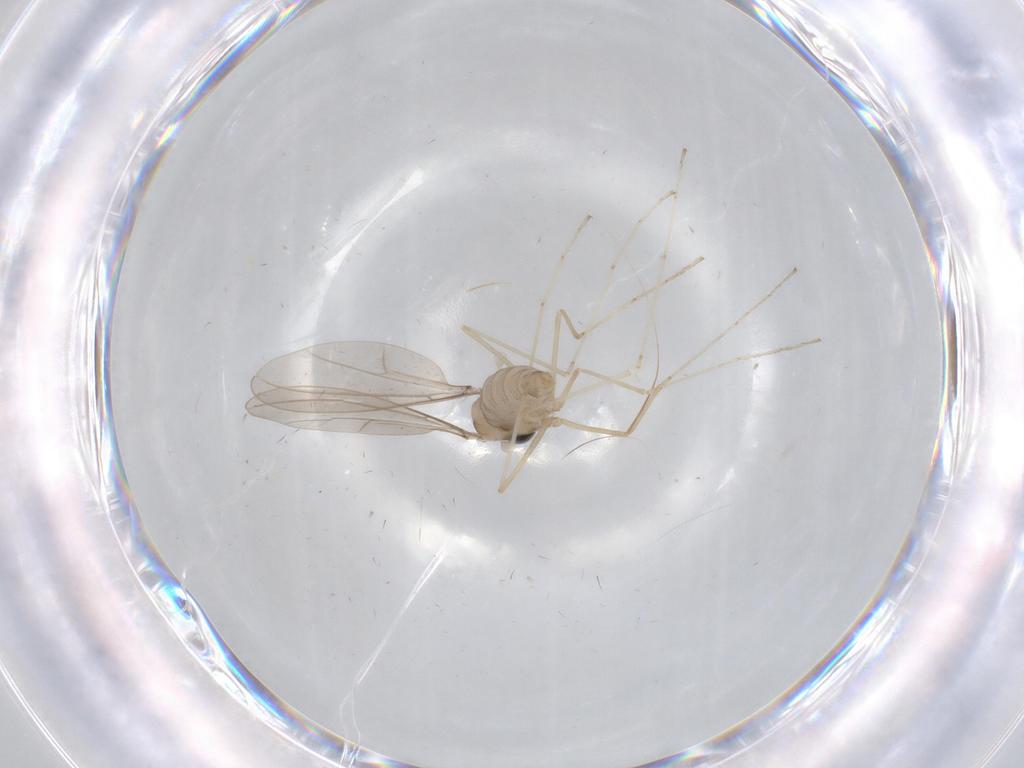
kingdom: Animalia
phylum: Arthropoda
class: Insecta
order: Diptera
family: Cecidomyiidae
